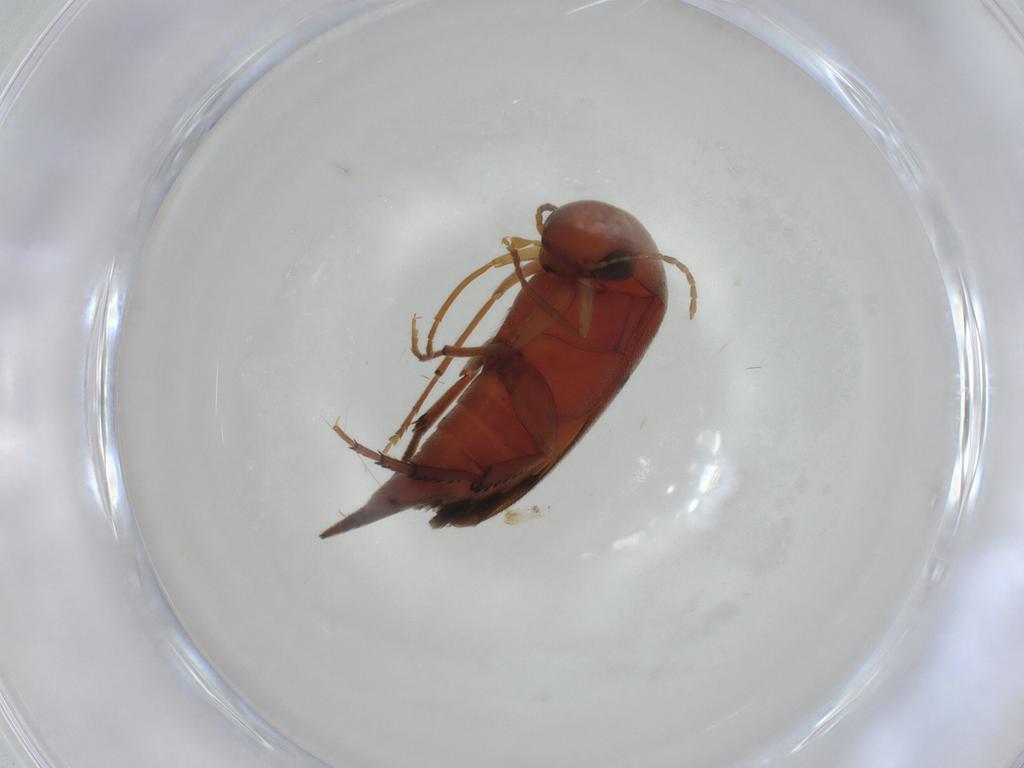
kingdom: Animalia
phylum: Arthropoda
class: Insecta
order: Coleoptera
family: Mordellidae
